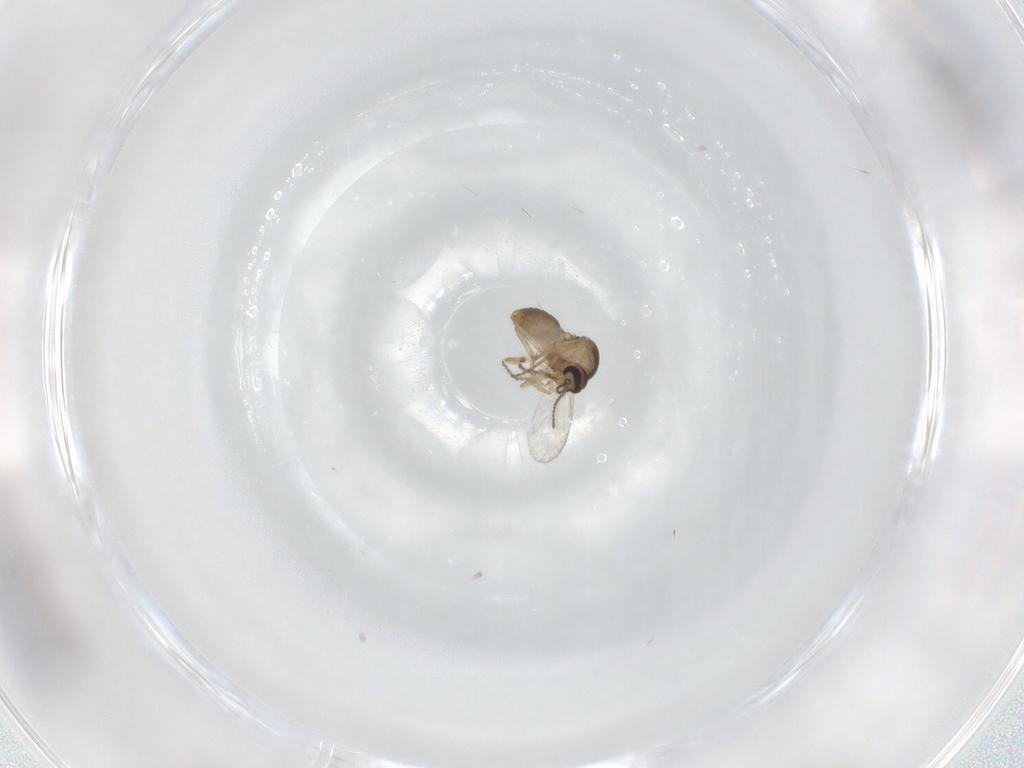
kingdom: Animalia
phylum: Arthropoda
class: Insecta
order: Diptera
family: Ceratopogonidae
